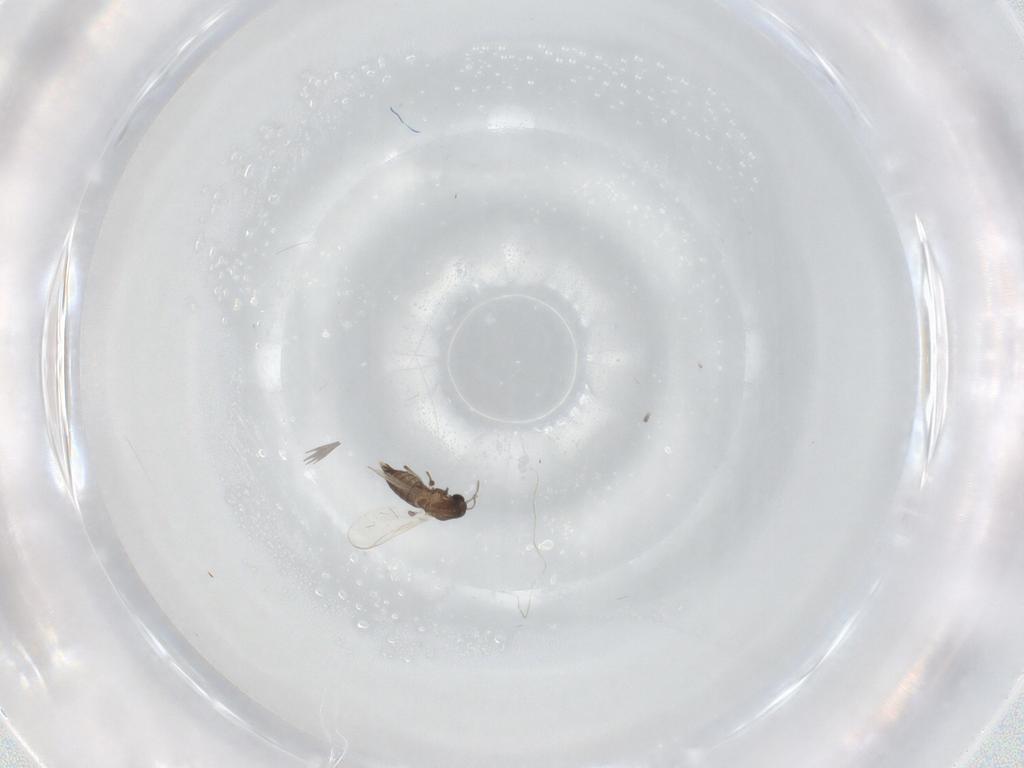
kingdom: Animalia
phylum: Arthropoda
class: Insecta
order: Diptera
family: Chironomidae
